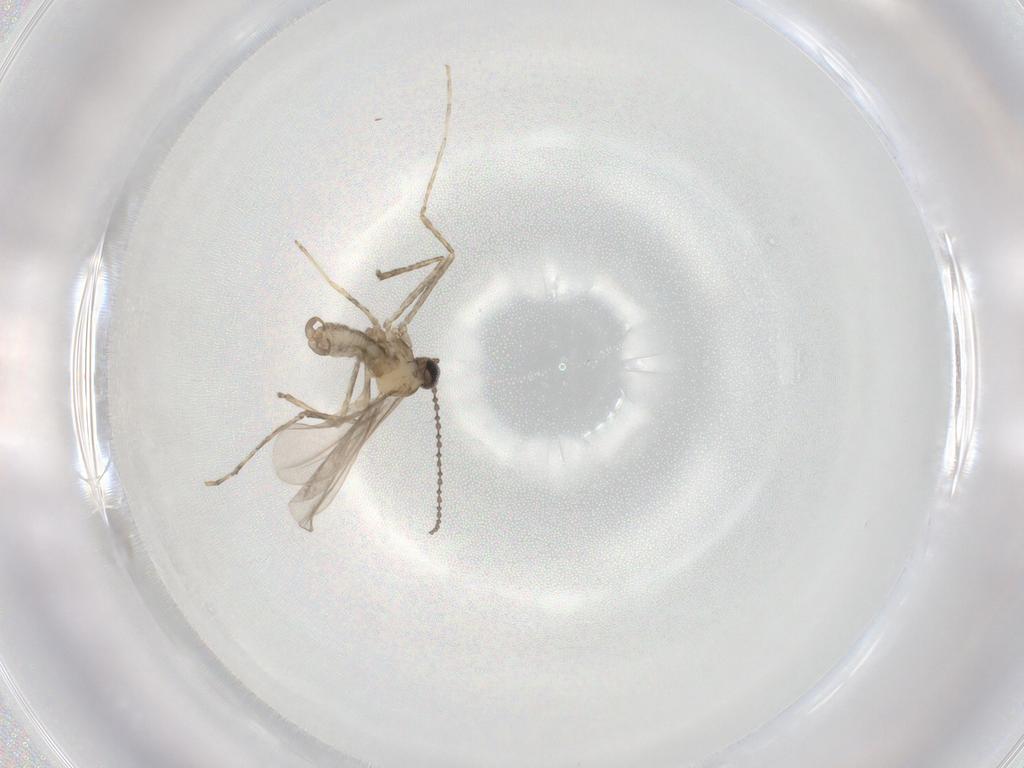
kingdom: Animalia
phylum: Arthropoda
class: Insecta
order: Diptera
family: Cecidomyiidae
